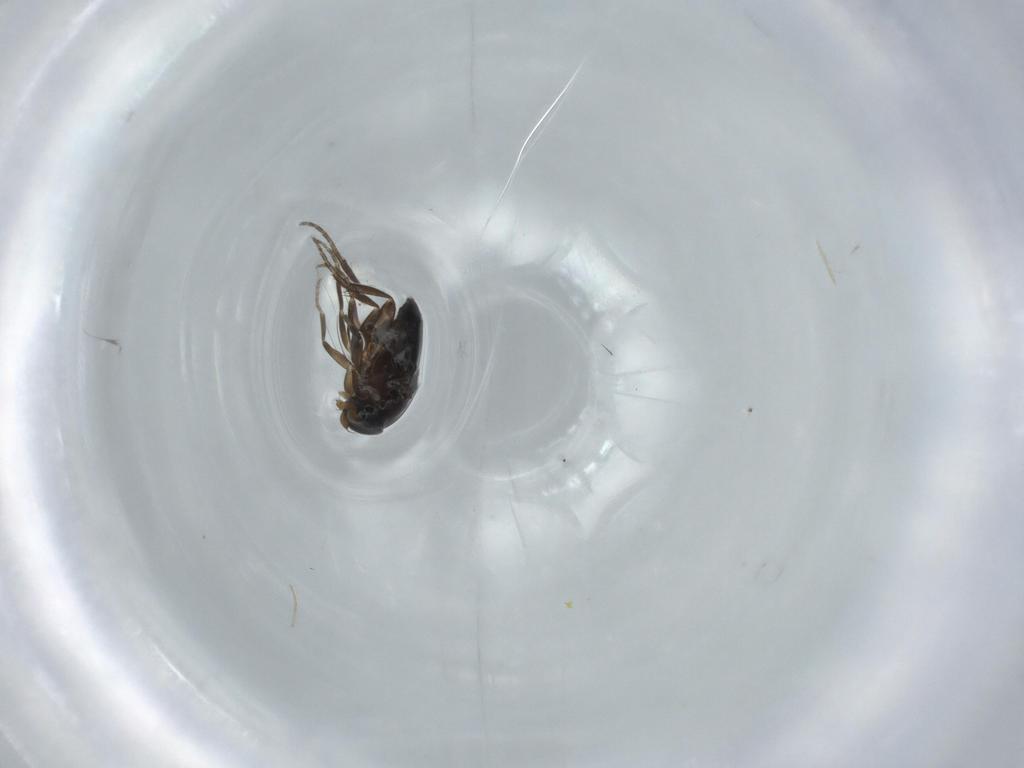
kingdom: Animalia
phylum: Arthropoda
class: Insecta
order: Diptera
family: Phoridae
